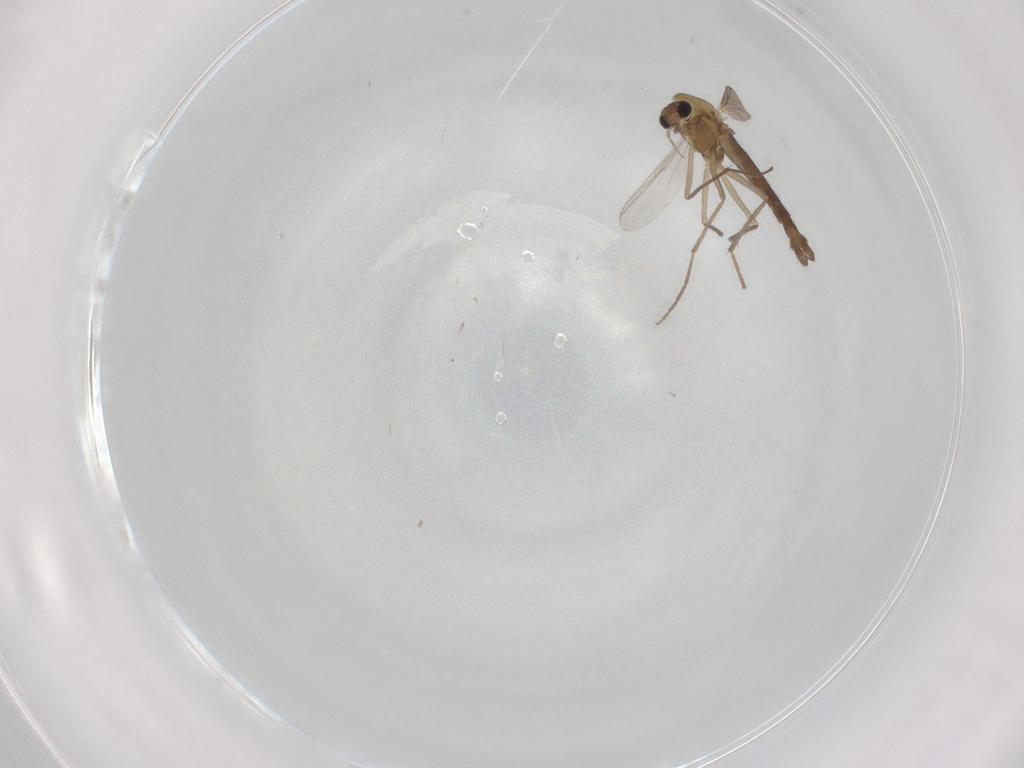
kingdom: Animalia
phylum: Arthropoda
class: Insecta
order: Diptera
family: Chironomidae
